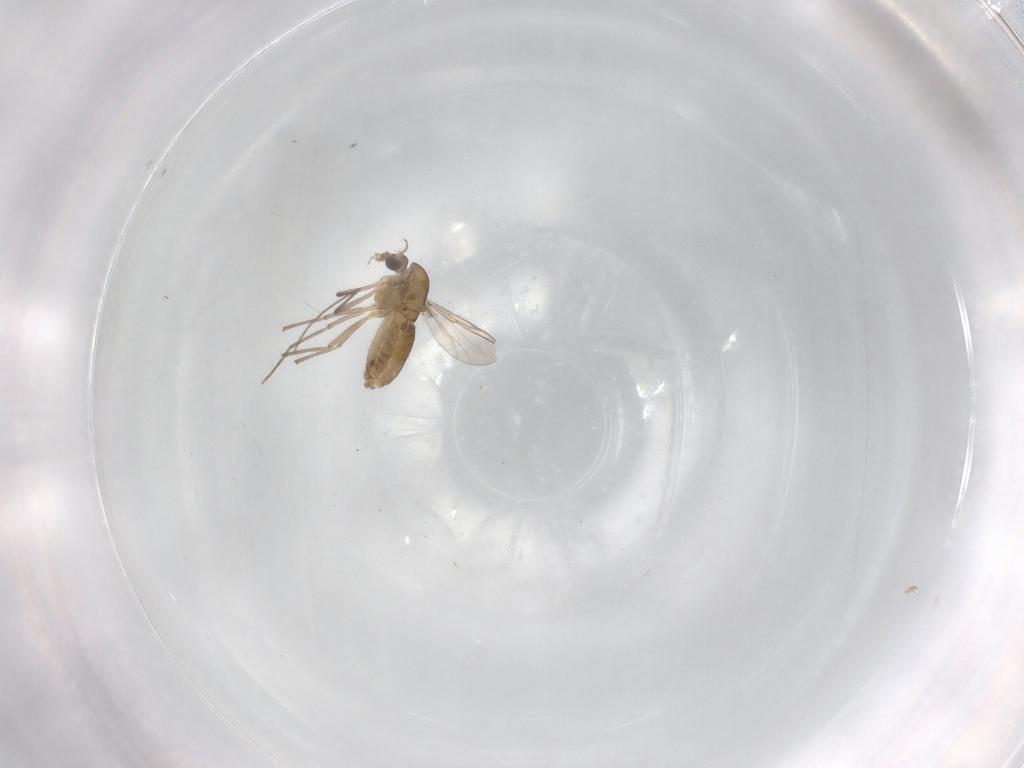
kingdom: Animalia
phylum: Arthropoda
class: Insecta
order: Diptera
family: Chironomidae
